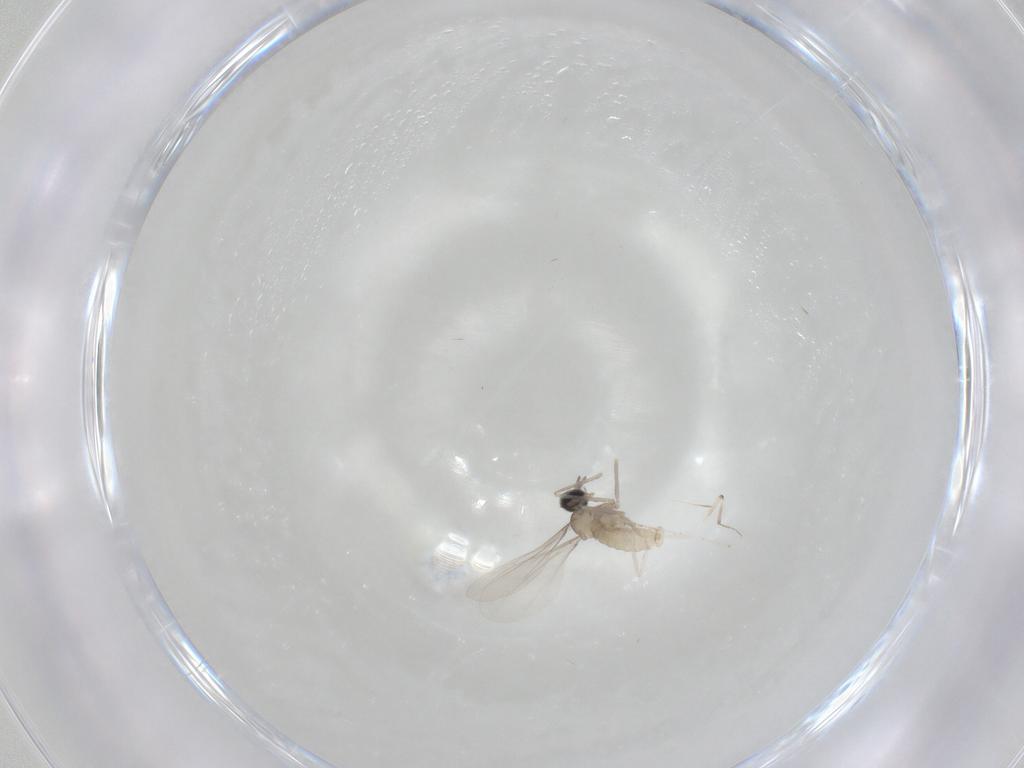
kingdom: Animalia
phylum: Arthropoda
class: Insecta
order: Diptera
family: Cecidomyiidae
